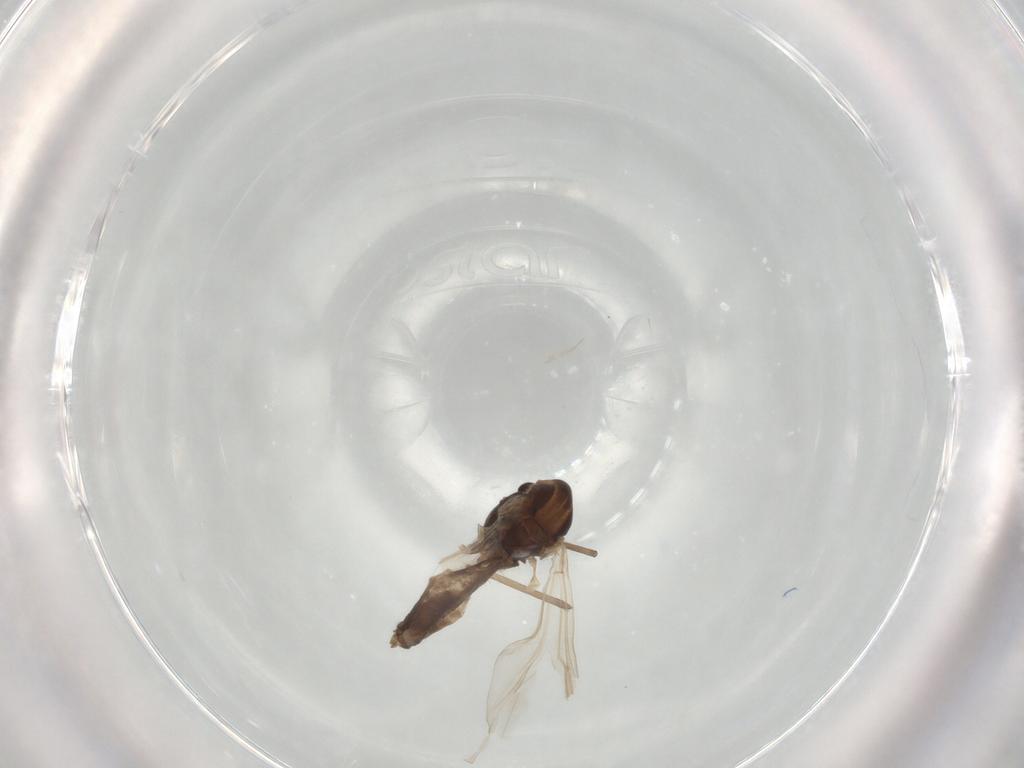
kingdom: Animalia
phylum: Arthropoda
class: Insecta
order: Diptera
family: Chironomidae
